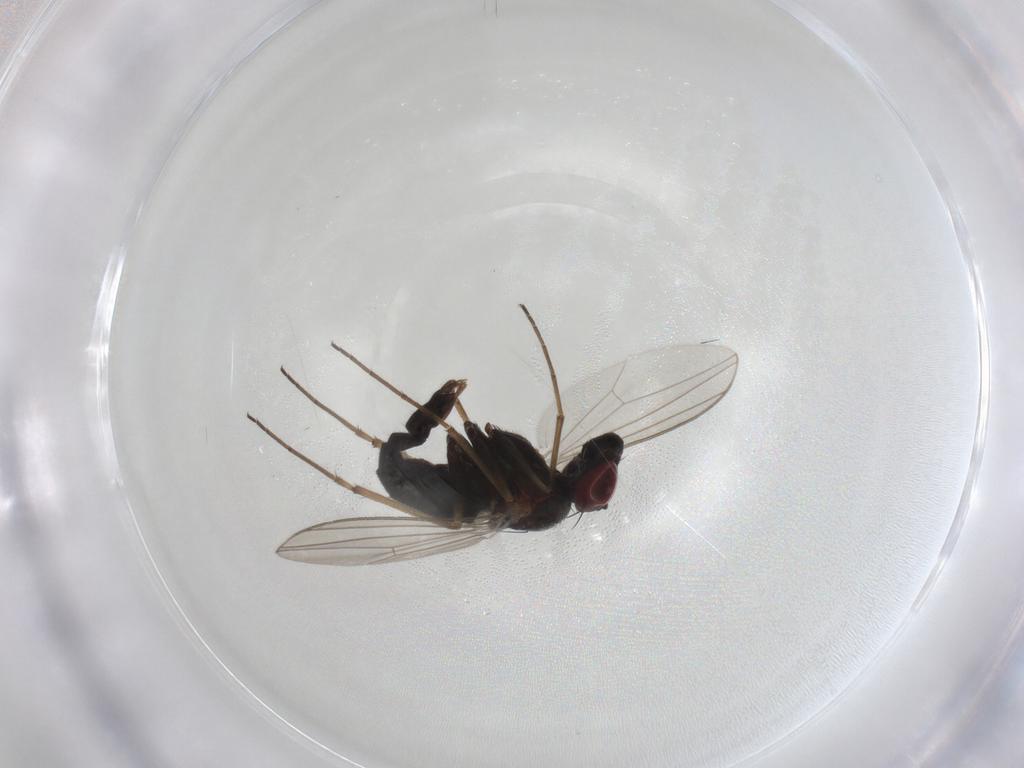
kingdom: Animalia
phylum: Arthropoda
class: Insecta
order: Diptera
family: Dolichopodidae
